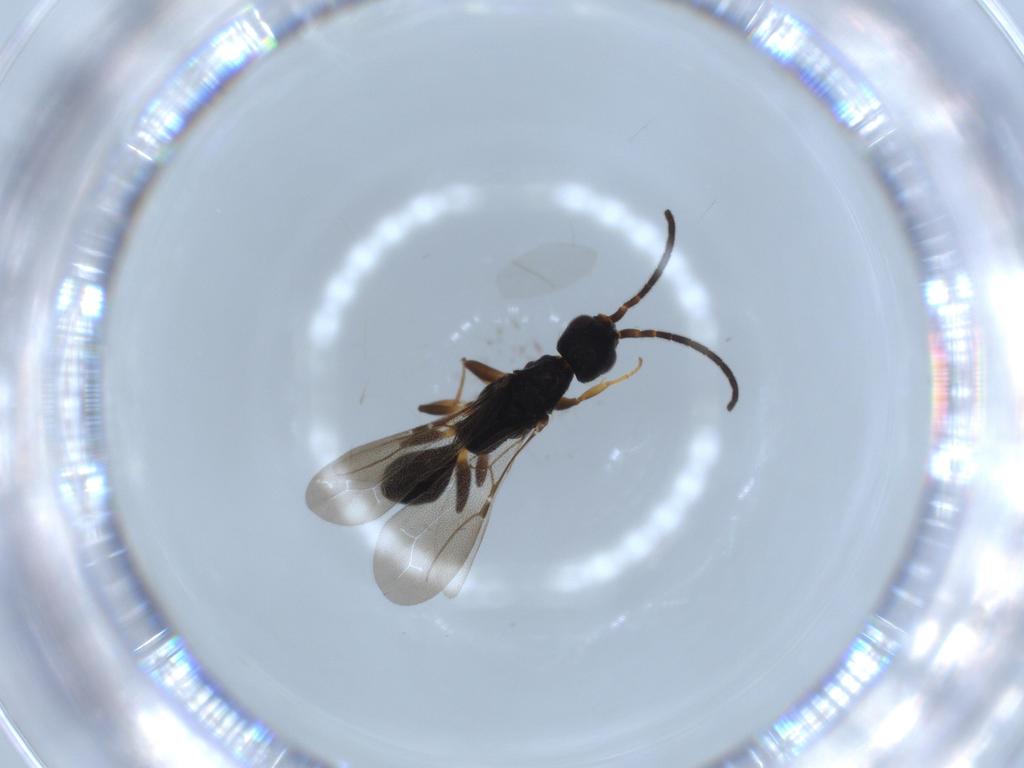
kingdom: Animalia
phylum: Arthropoda
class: Insecta
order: Hymenoptera
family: Bethylidae
